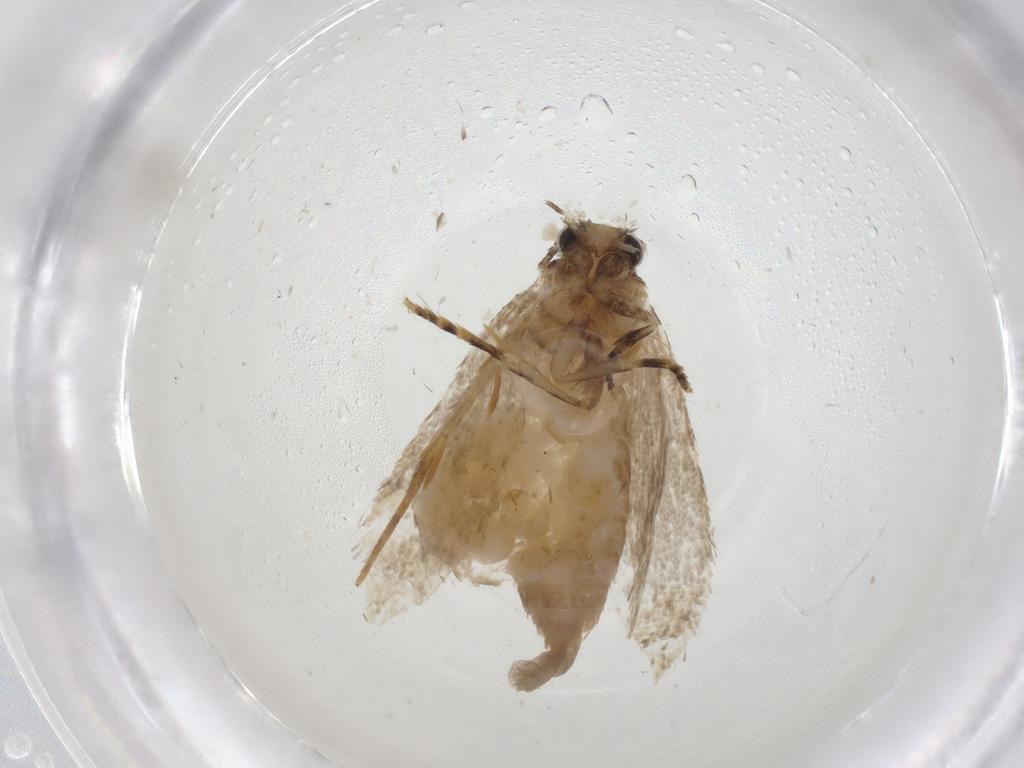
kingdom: Animalia
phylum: Arthropoda
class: Insecta
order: Lepidoptera
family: Tineidae
